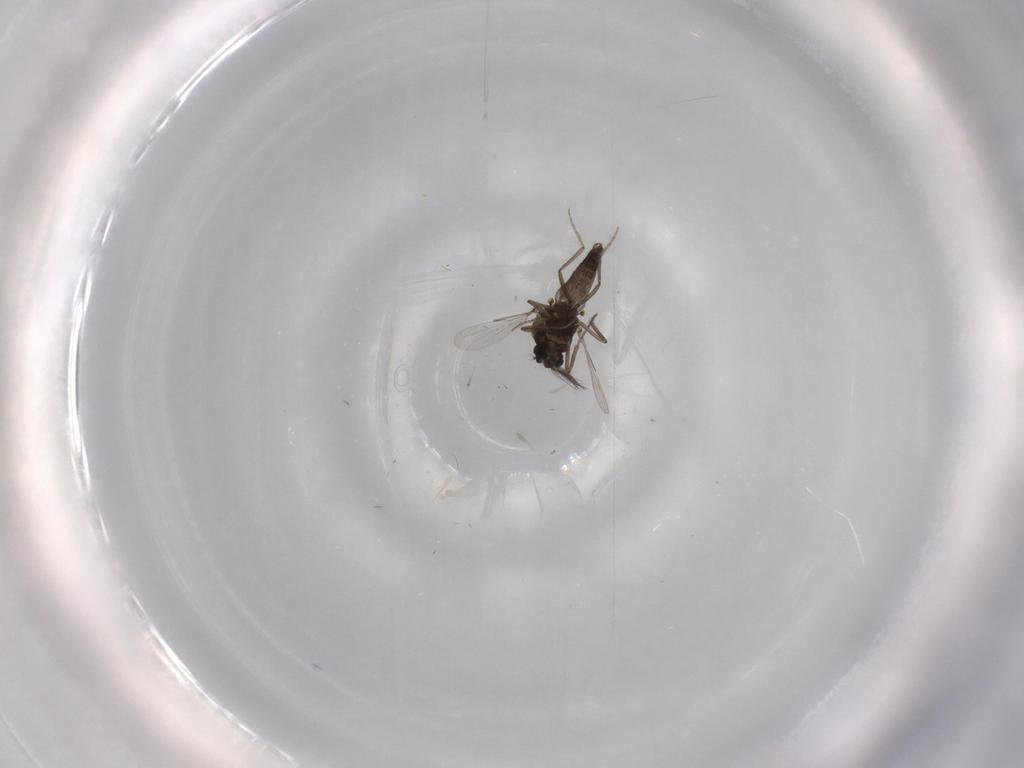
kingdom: Animalia
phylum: Arthropoda
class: Insecta
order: Diptera
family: Ceratopogonidae
